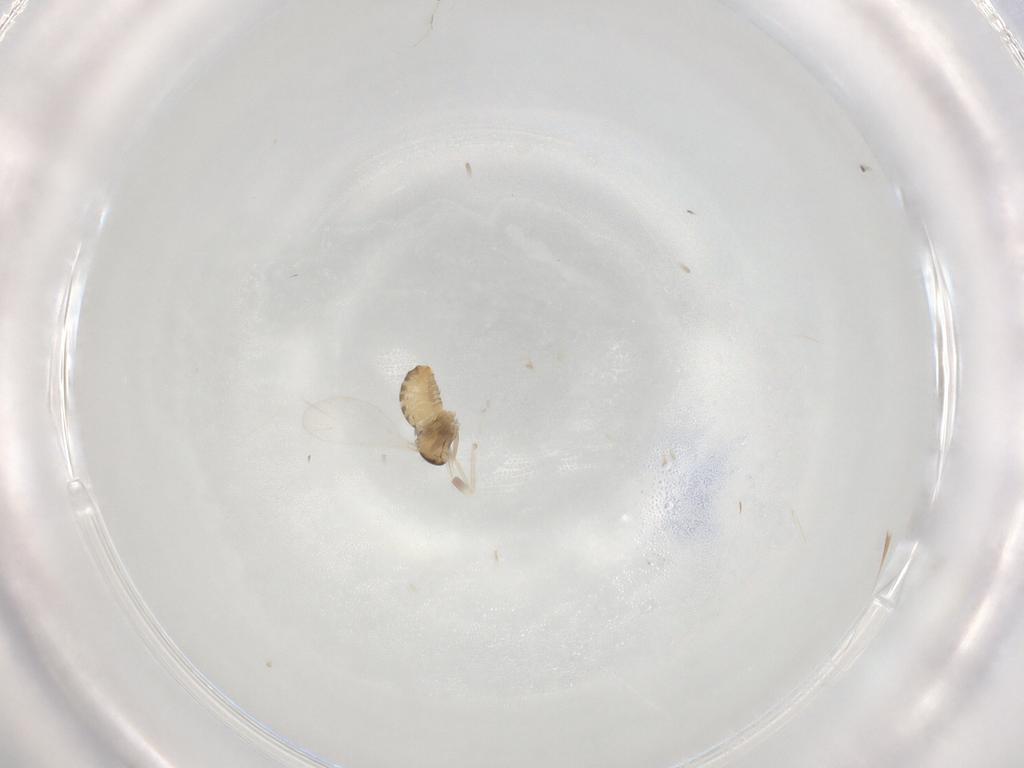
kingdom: Animalia
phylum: Arthropoda
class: Insecta
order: Diptera
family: Cecidomyiidae
